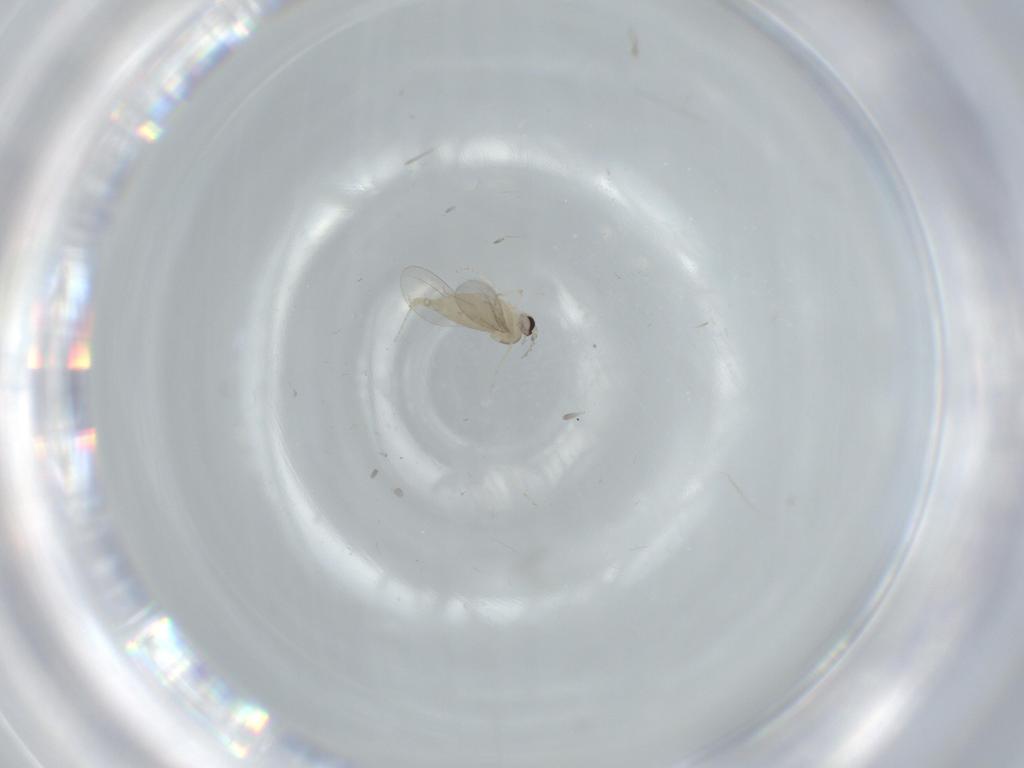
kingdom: Animalia
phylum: Arthropoda
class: Insecta
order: Diptera
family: Cecidomyiidae
